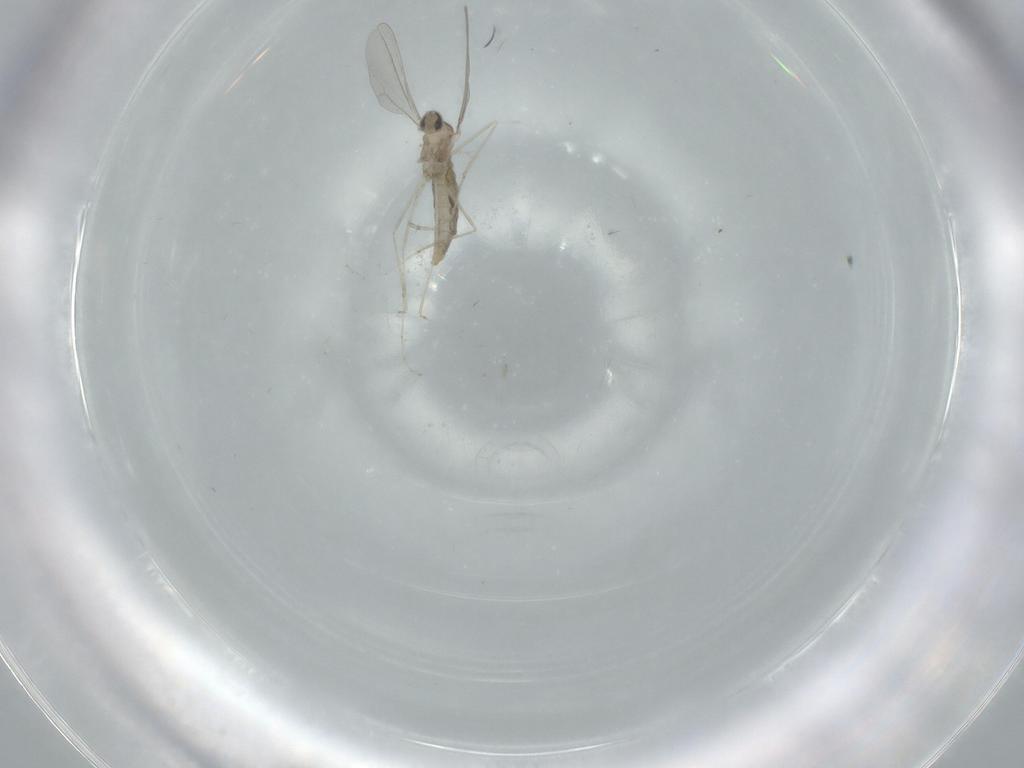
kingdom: Animalia
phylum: Arthropoda
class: Insecta
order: Diptera
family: Cecidomyiidae
